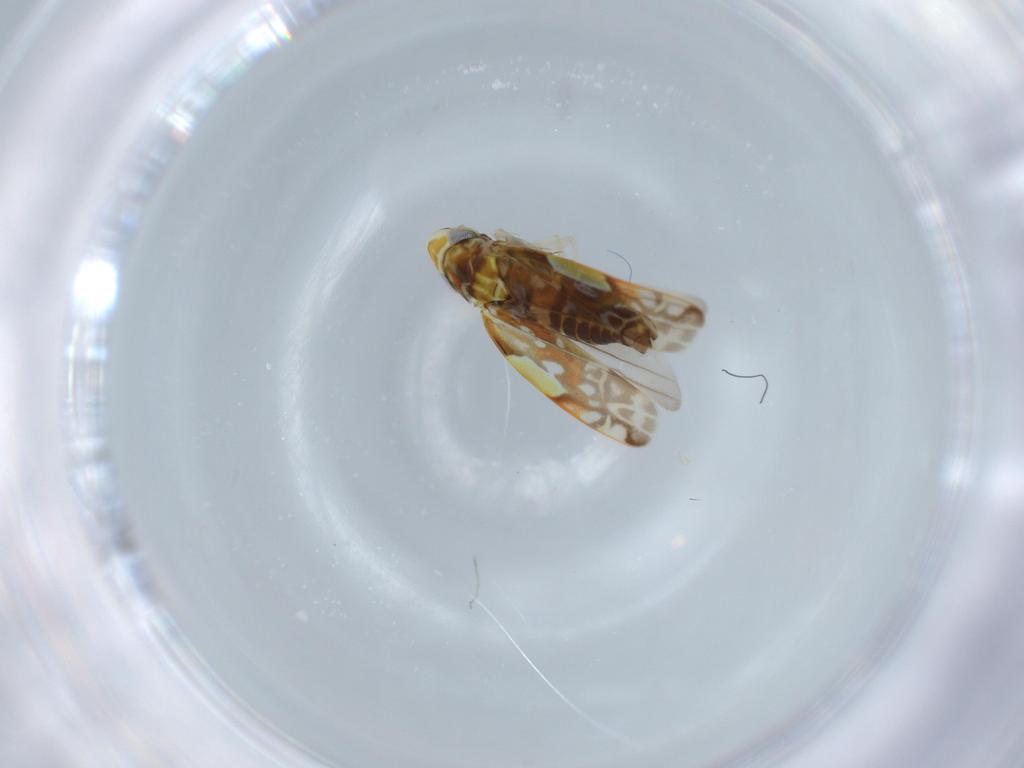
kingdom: Animalia
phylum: Arthropoda
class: Insecta
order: Hemiptera
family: Cicadellidae
